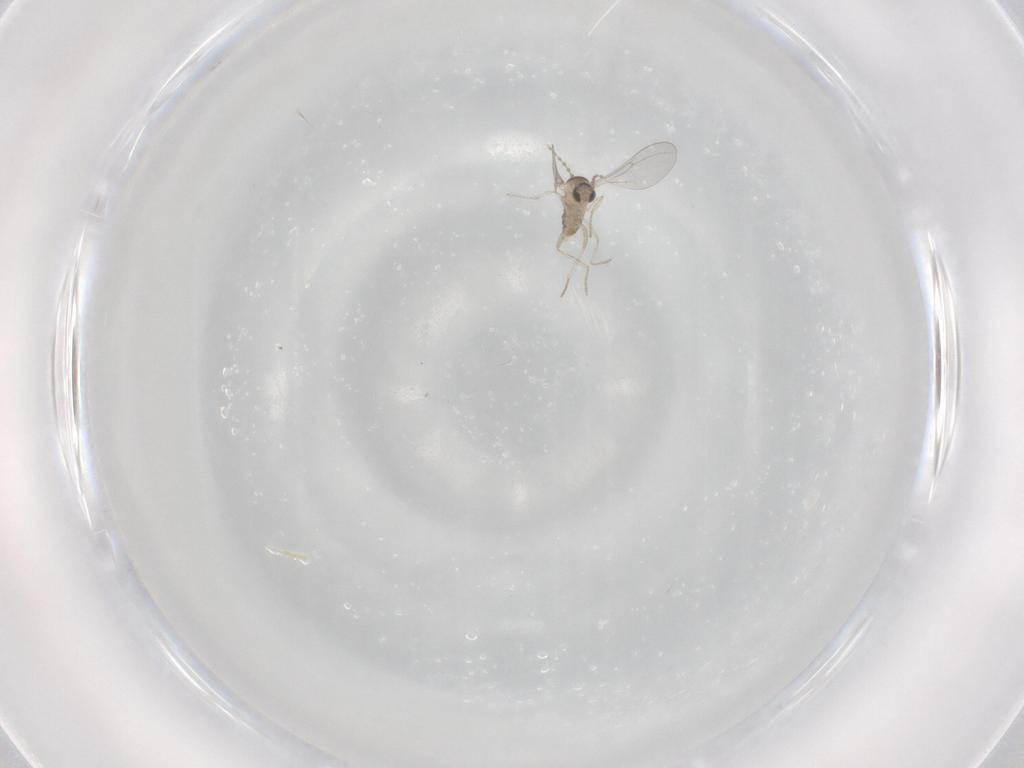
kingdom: Animalia
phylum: Arthropoda
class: Insecta
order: Diptera
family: Cecidomyiidae
